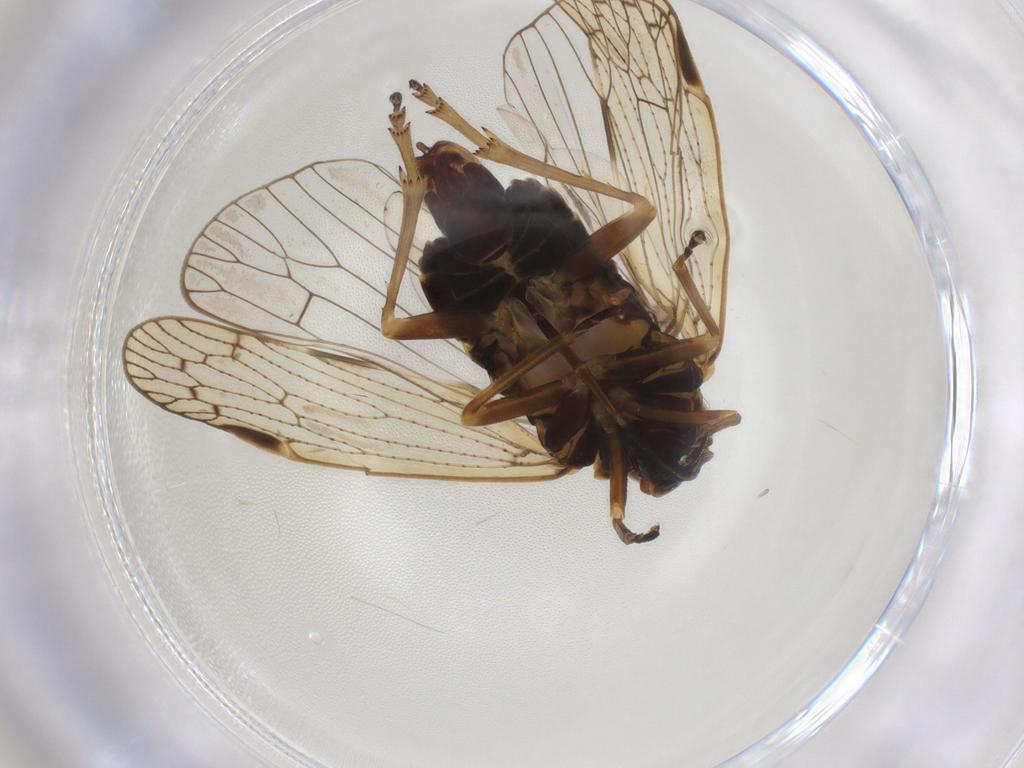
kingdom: Animalia
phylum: Arthropoda
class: Insecta
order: Hemiptera
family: Cixiidae
